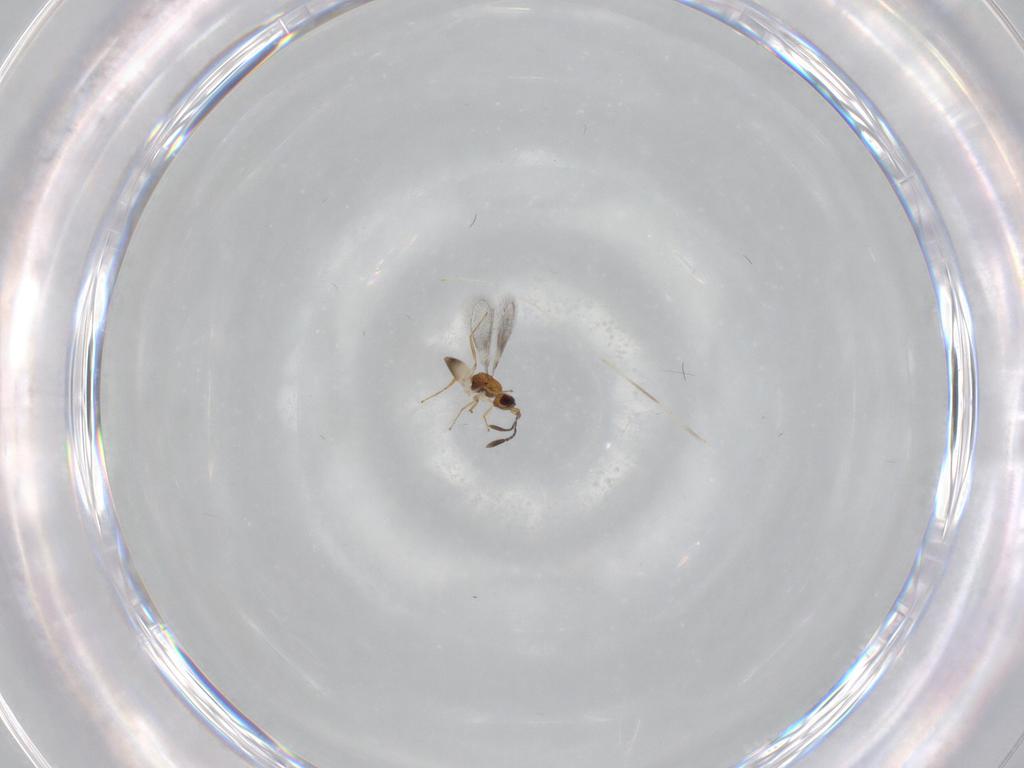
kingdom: Animalia
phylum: Arthropoda
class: Insecta
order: Hymenoptera
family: Mymaridae
